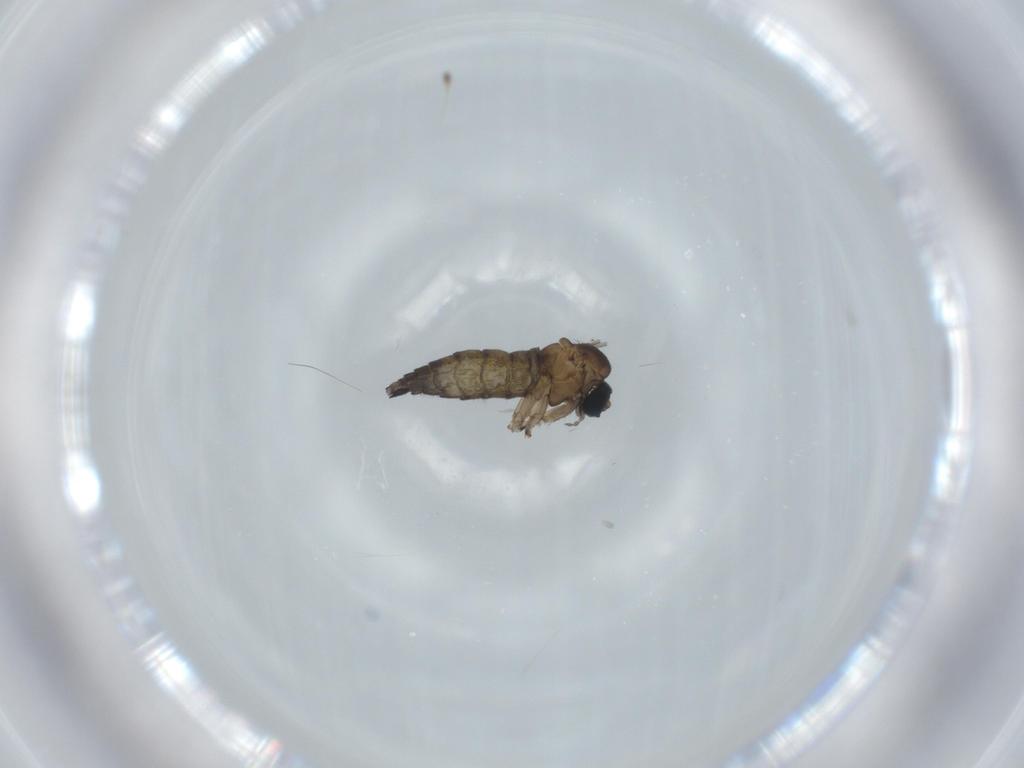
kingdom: Animalia
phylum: Arthropoda
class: Insecta
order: Diptera
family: Sciaridae
